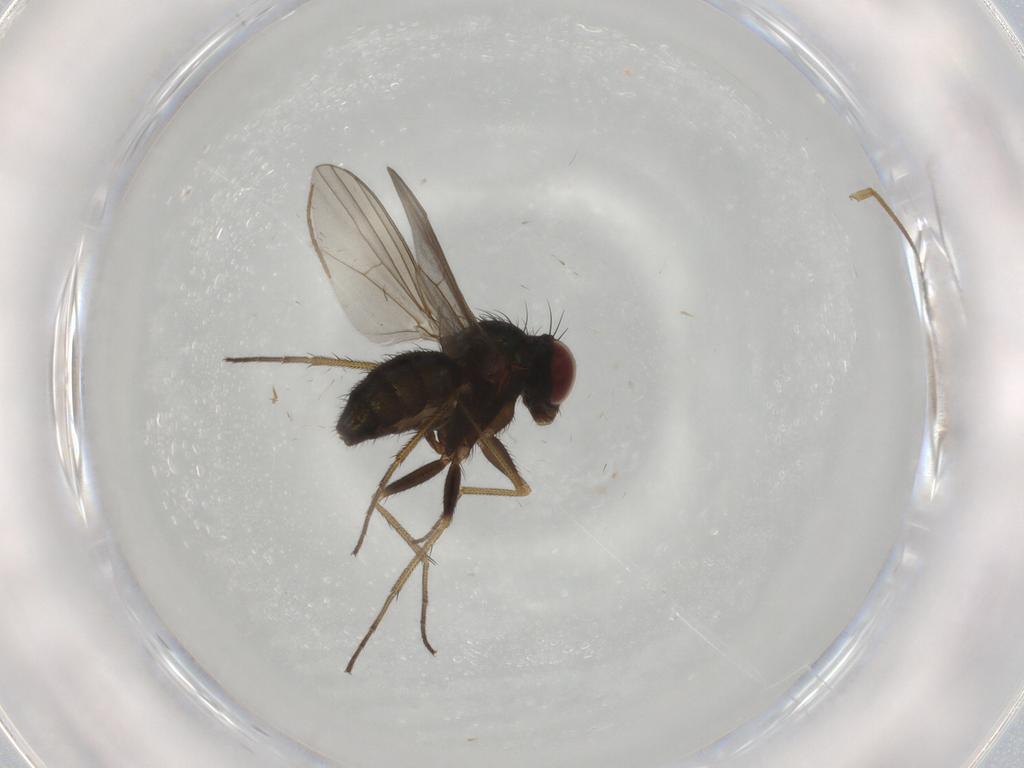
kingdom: Animalia
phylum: Arthropoda
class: Insecta
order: Diptera
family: Dolichopodidae
